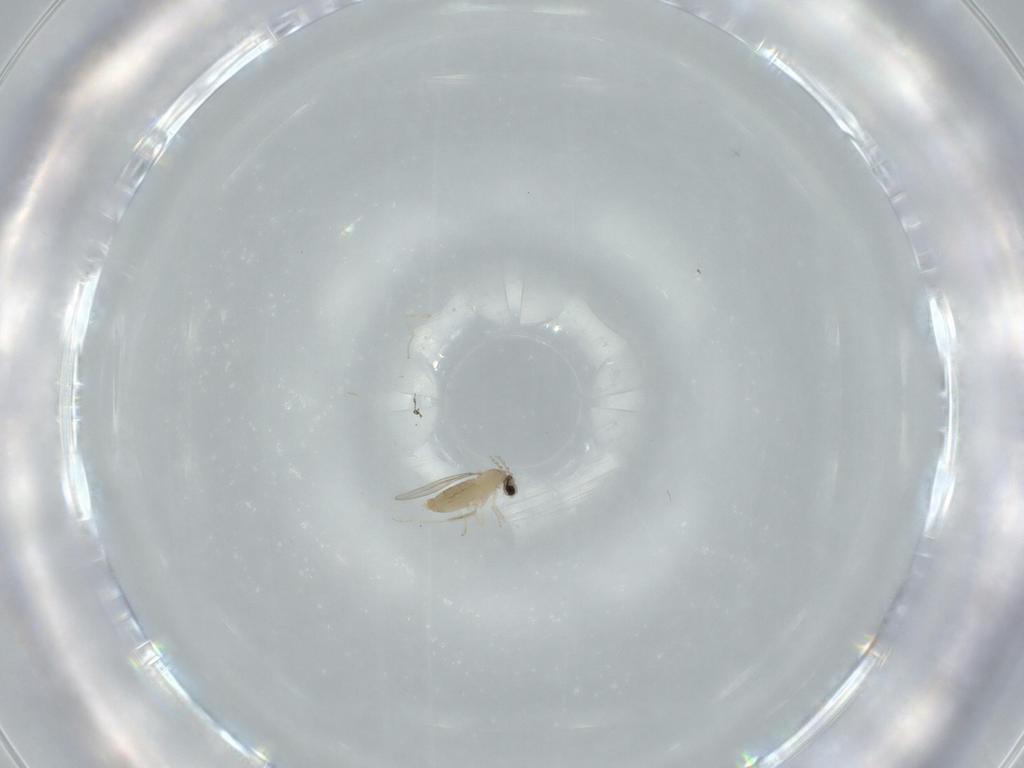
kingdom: Animalia
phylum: Arthropoda
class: Insecta
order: Diptera
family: Cecidomyiidae
